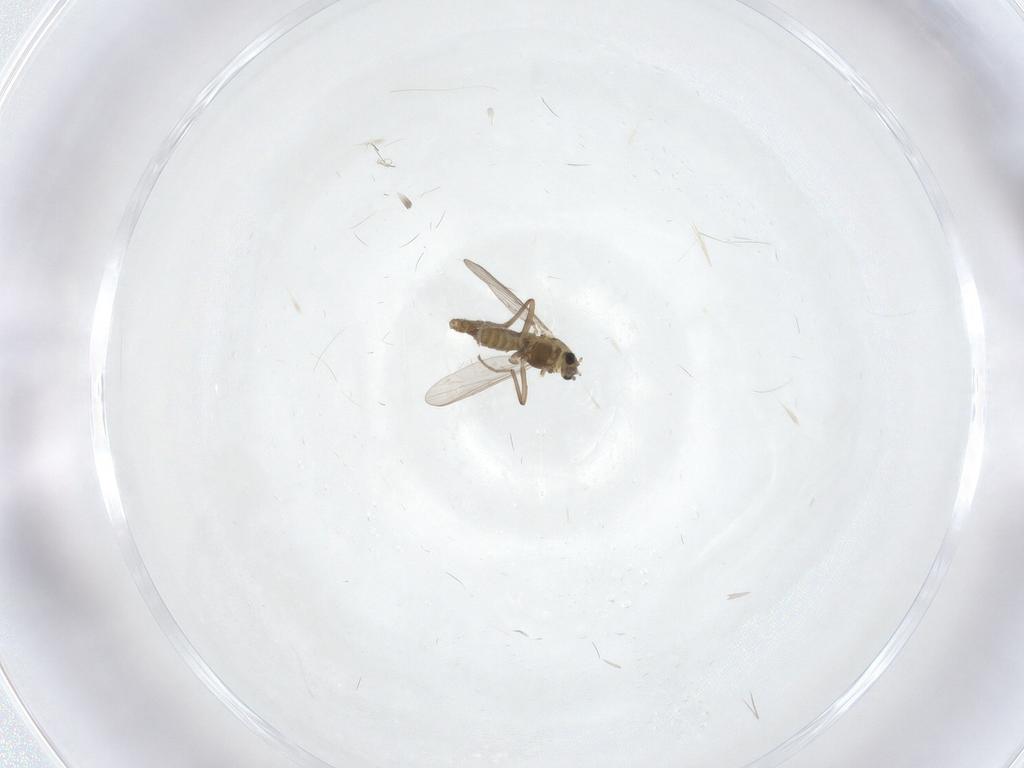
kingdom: Animalia
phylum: Arthropoda
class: Insecta
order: Diptera
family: Chironomidae
